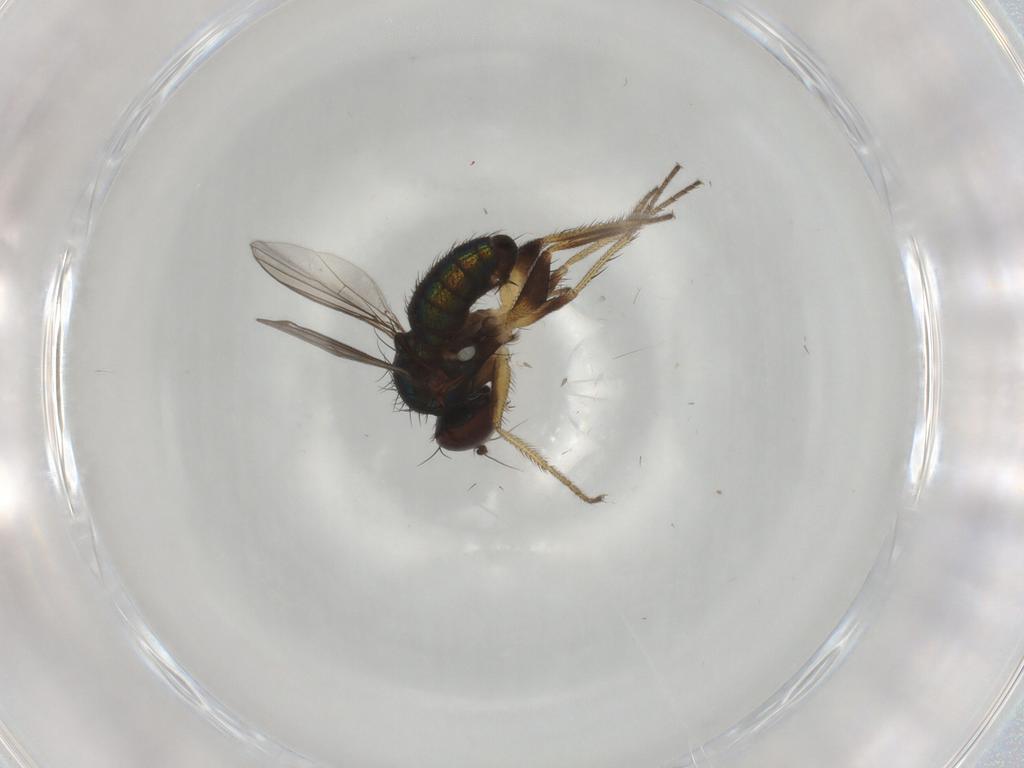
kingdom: Animalia
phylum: Arthropoda
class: Insecta
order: Diptera
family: Dolichopodidae
